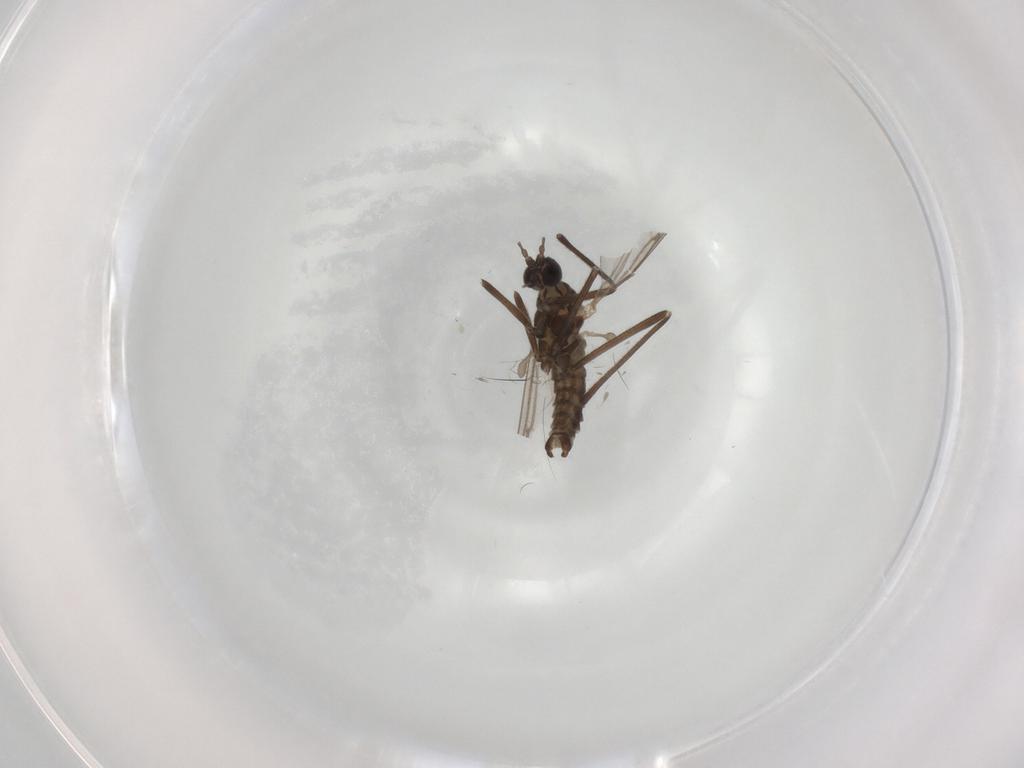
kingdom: Animalia
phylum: Arthropoda
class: Insecta
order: Diptera
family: Cecidomyiidae
